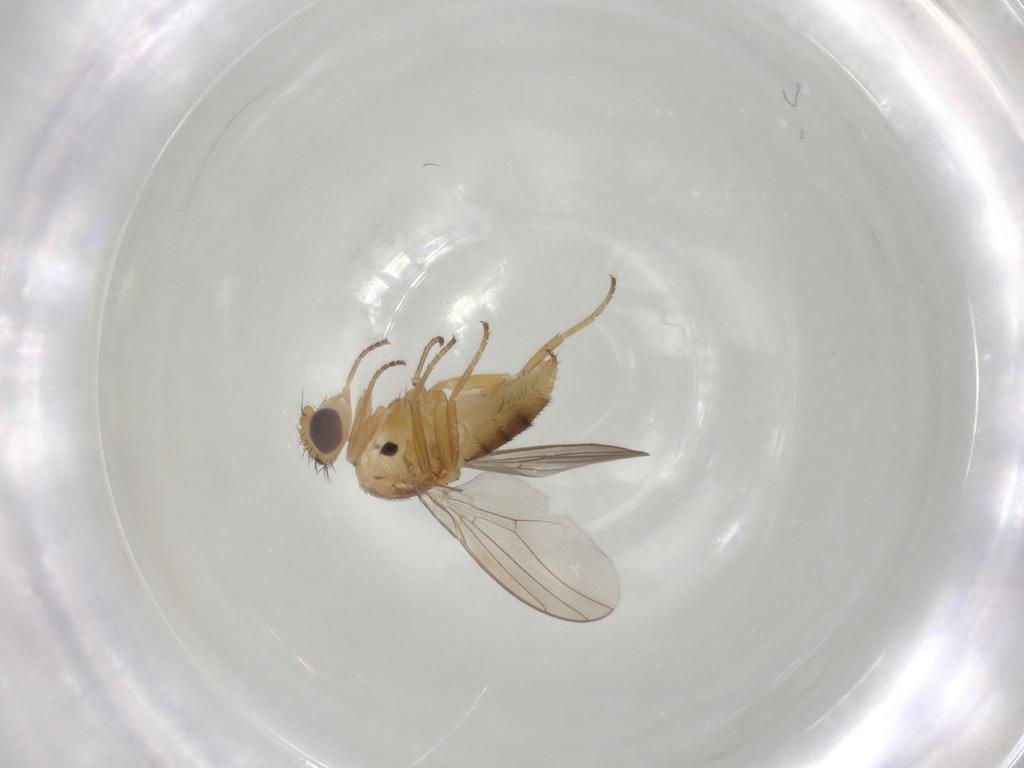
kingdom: Animalia
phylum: Arthropoda
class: Insecta
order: Diptera
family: Chloropidae
